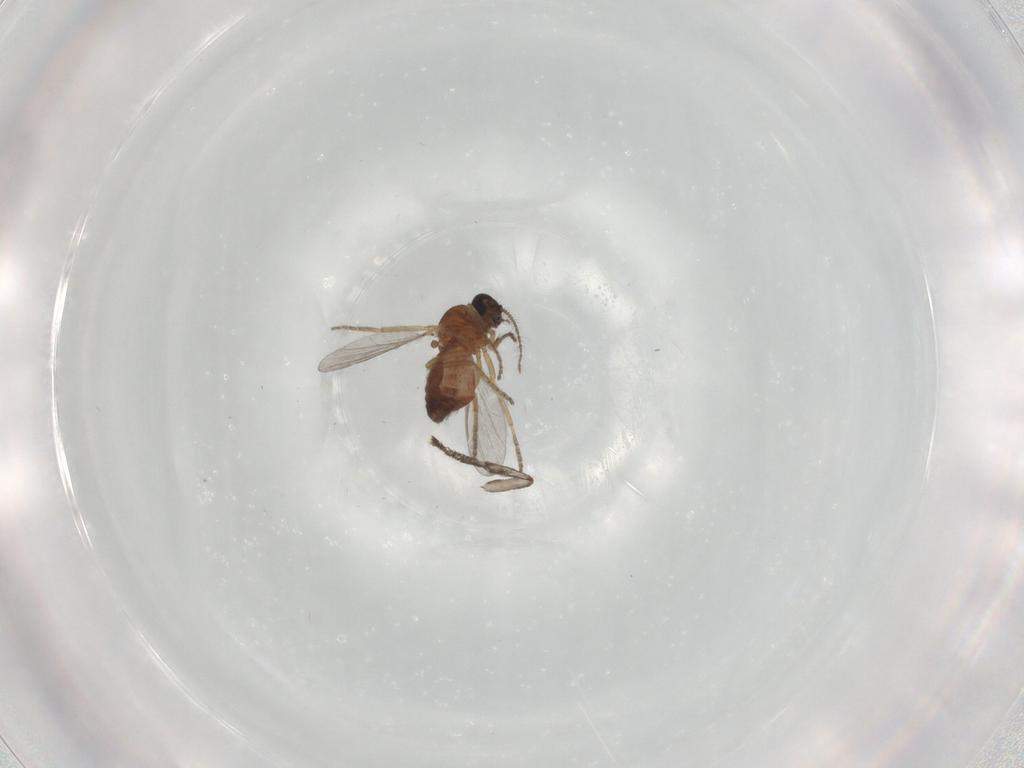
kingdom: Animalia
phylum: Arthropoda
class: Insecta
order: Diptera
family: Ceratopogonidae
